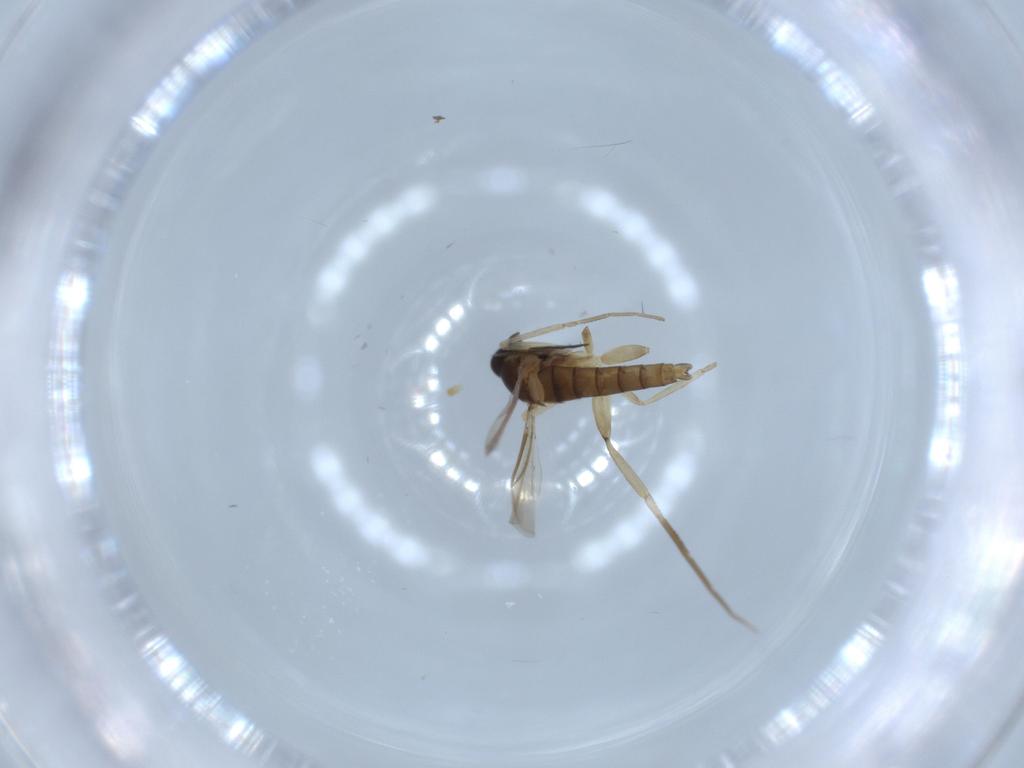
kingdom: Animalia
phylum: Arthropoda
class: Insecta
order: Diptera
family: Cecidomyiidae
